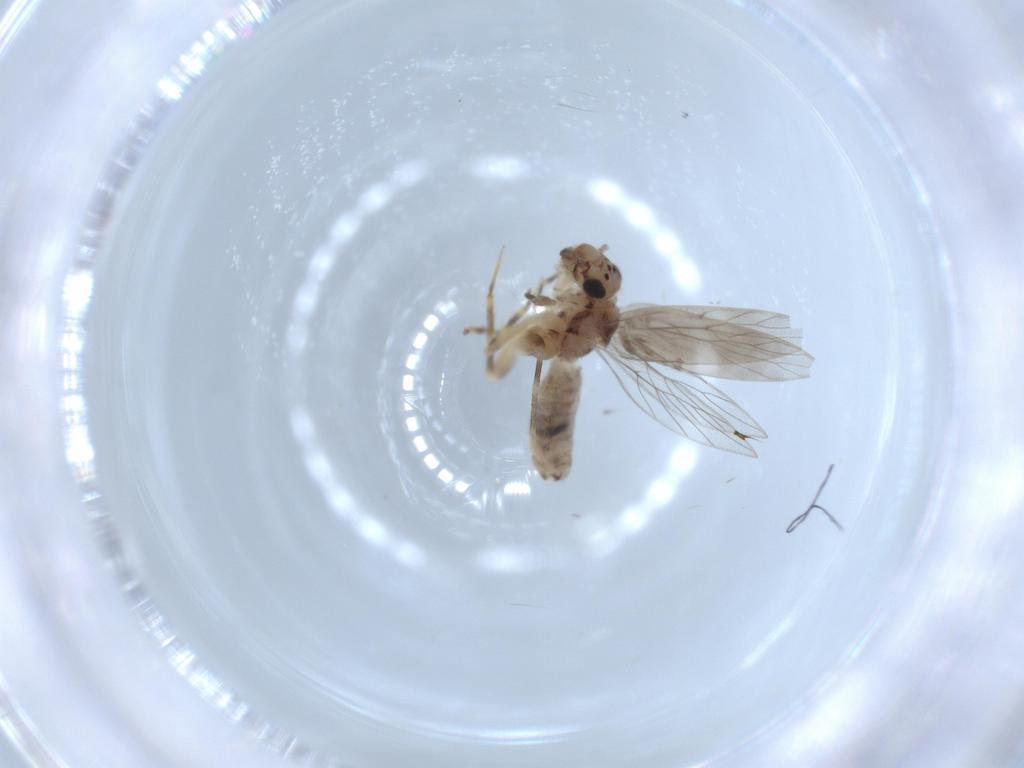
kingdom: Animalia
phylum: Arthropoda
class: Insecta
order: Psocodea
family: Lepidopsocidae
